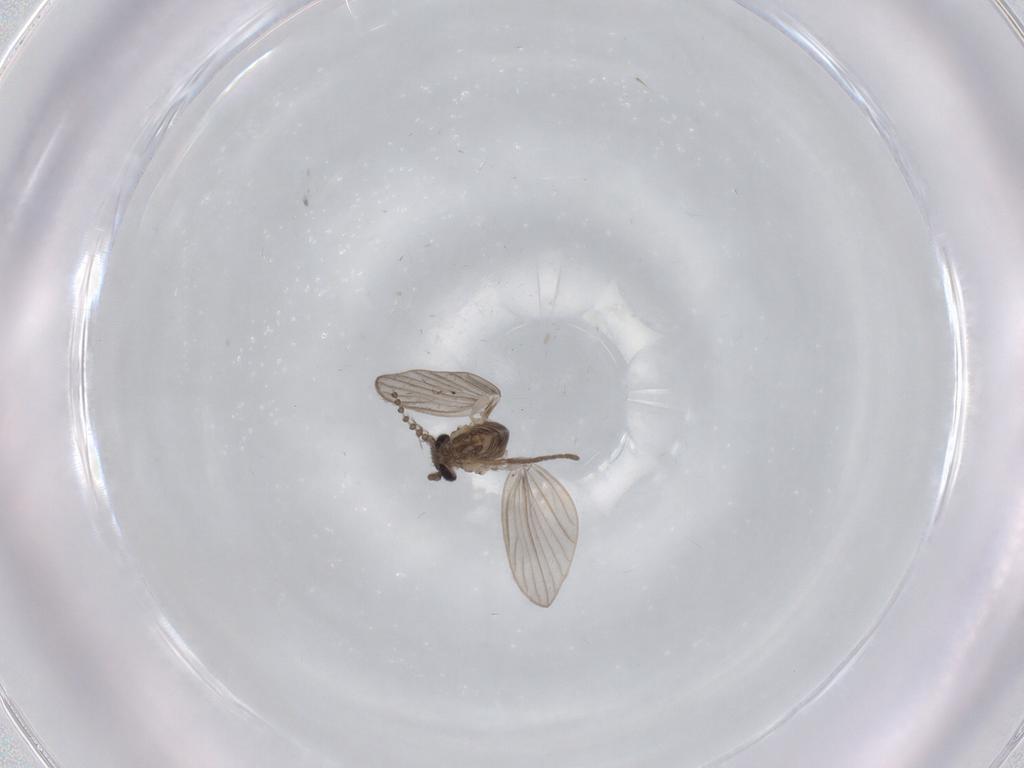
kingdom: Animalia
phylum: Arthropoda
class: Insecta
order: Diptera
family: Psychodidae
